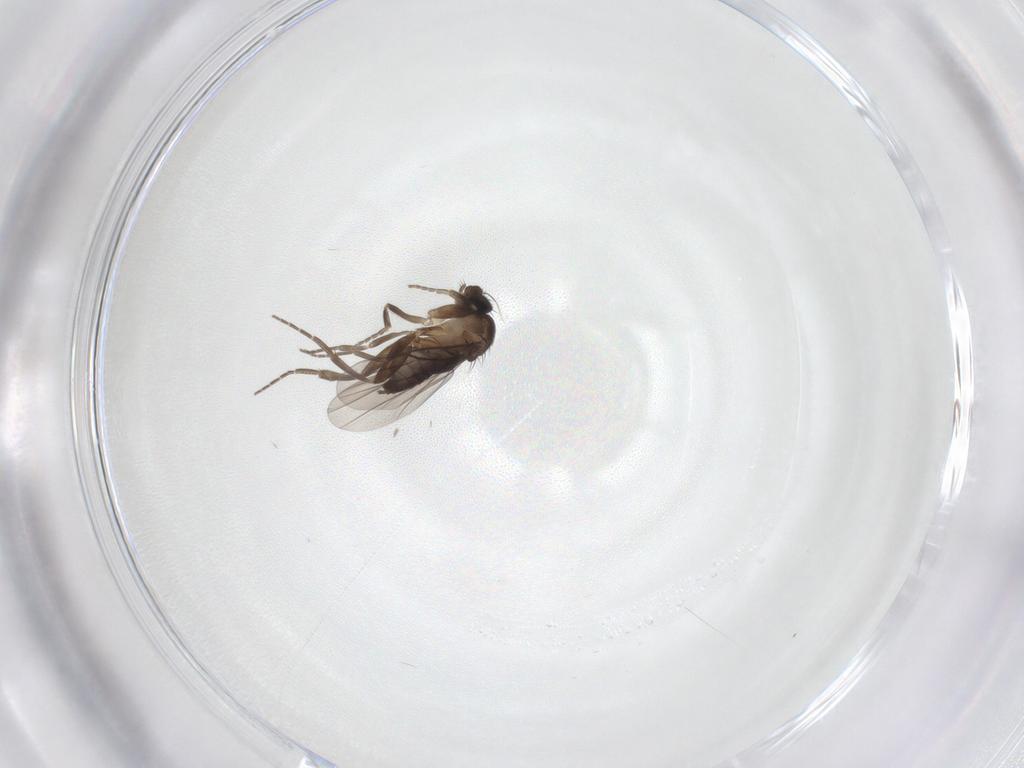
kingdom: Animalia
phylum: Arthropoda
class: Insecta
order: Diptera
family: Phoridae
